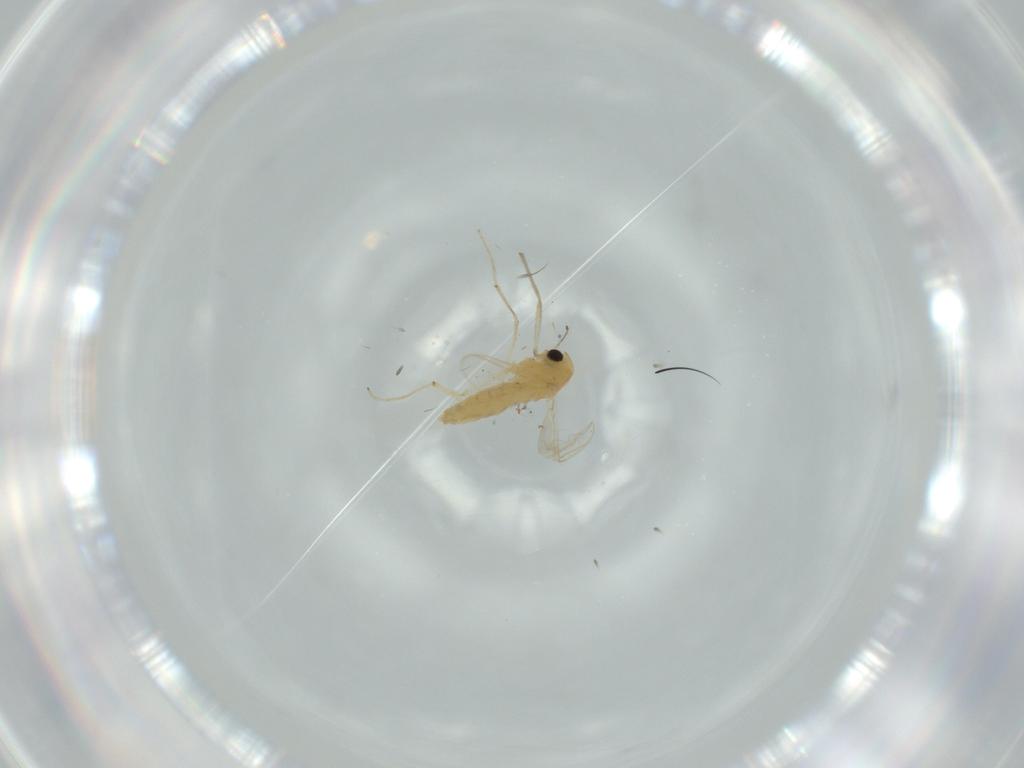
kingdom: Animalia
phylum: Arthropoda
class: Insecta
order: Diptera
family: Chironomidae
